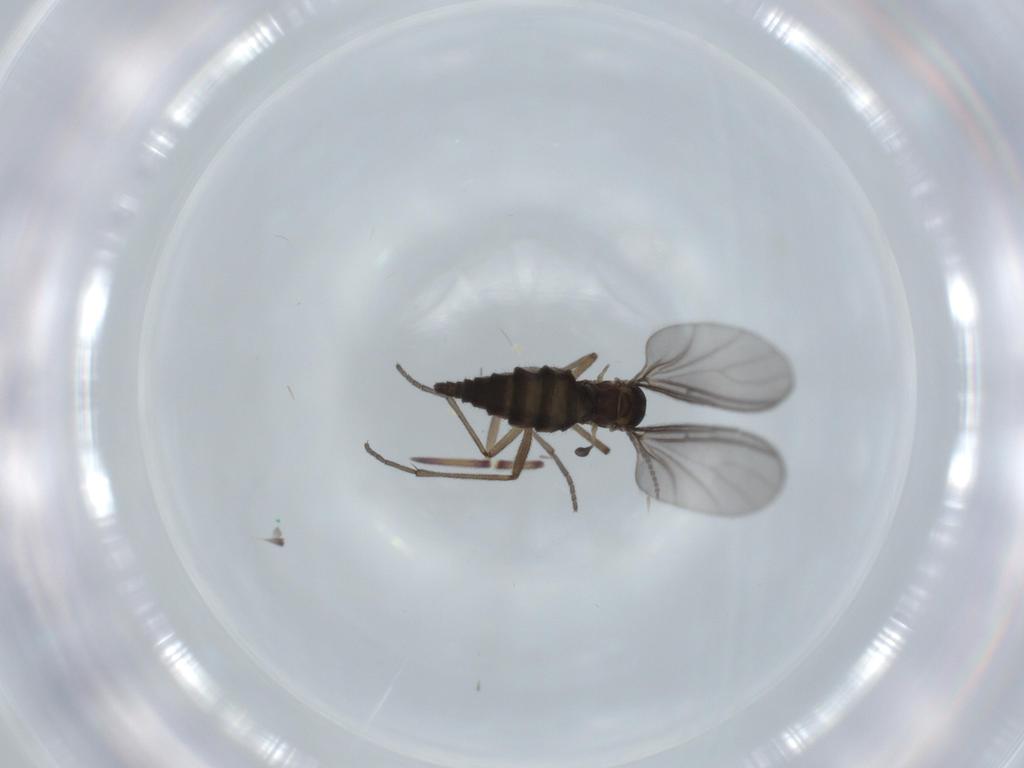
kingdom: Animalia
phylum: Arthropoda
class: Insecta
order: Diptera
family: Sciaridae
